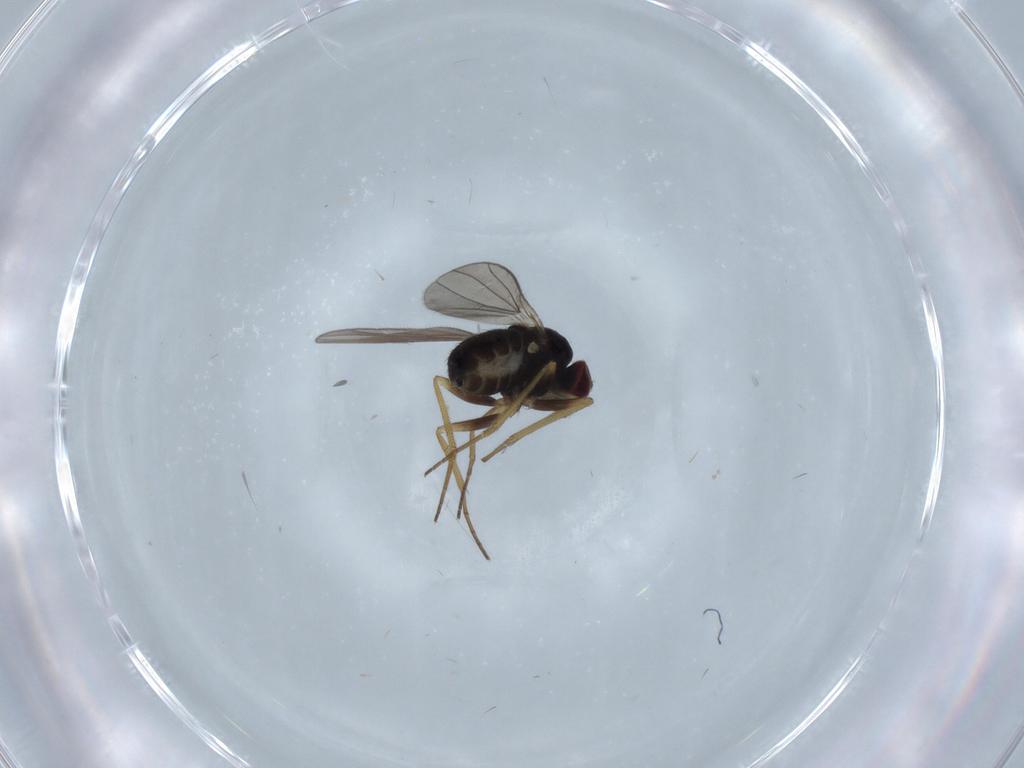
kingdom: Animalia
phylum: Arthropoda
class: Insecta
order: Diptera
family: Dolichopodidae
